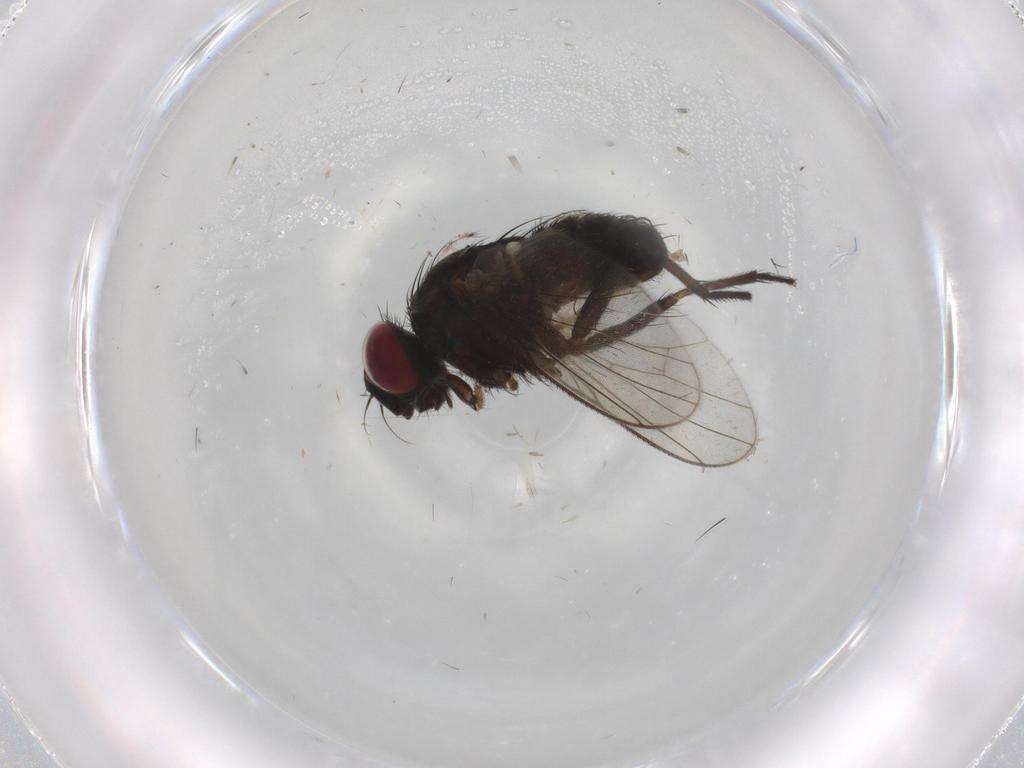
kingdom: Animalia
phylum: Arthropoda
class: Insecta
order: Diptera
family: Muscidae
